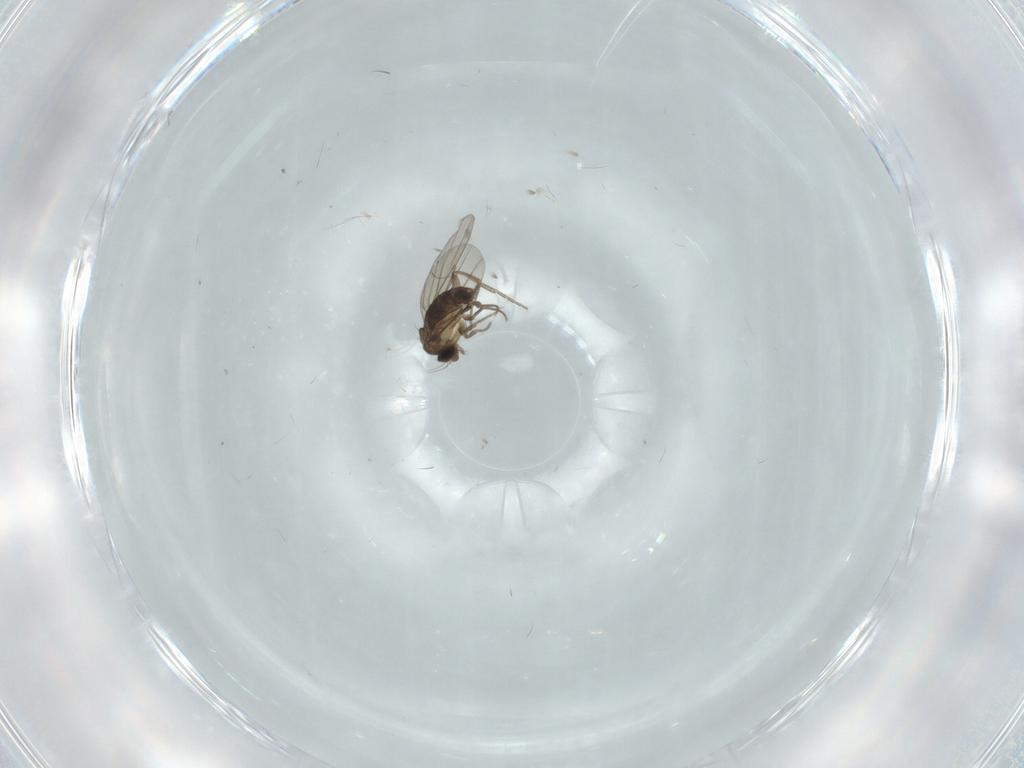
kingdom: Animalia
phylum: Arthropoda
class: Insecta
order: Diptera
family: Phoridae
